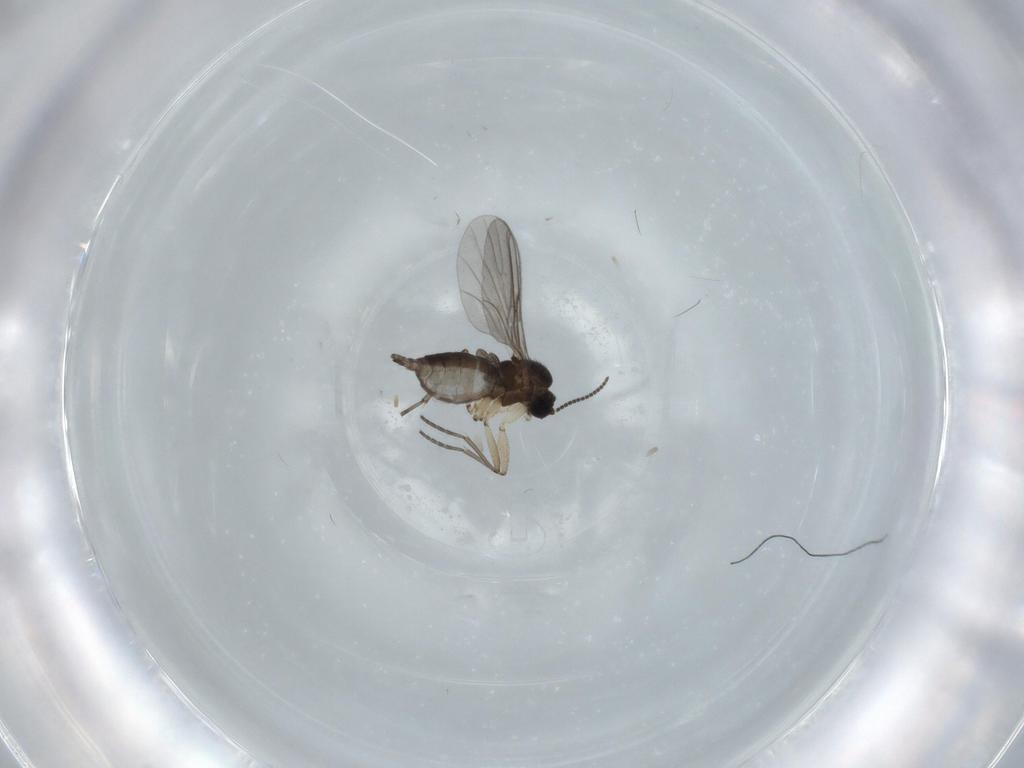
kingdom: Animalia
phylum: Arthropoda
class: Insecta
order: Diptera
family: Sciaridae
